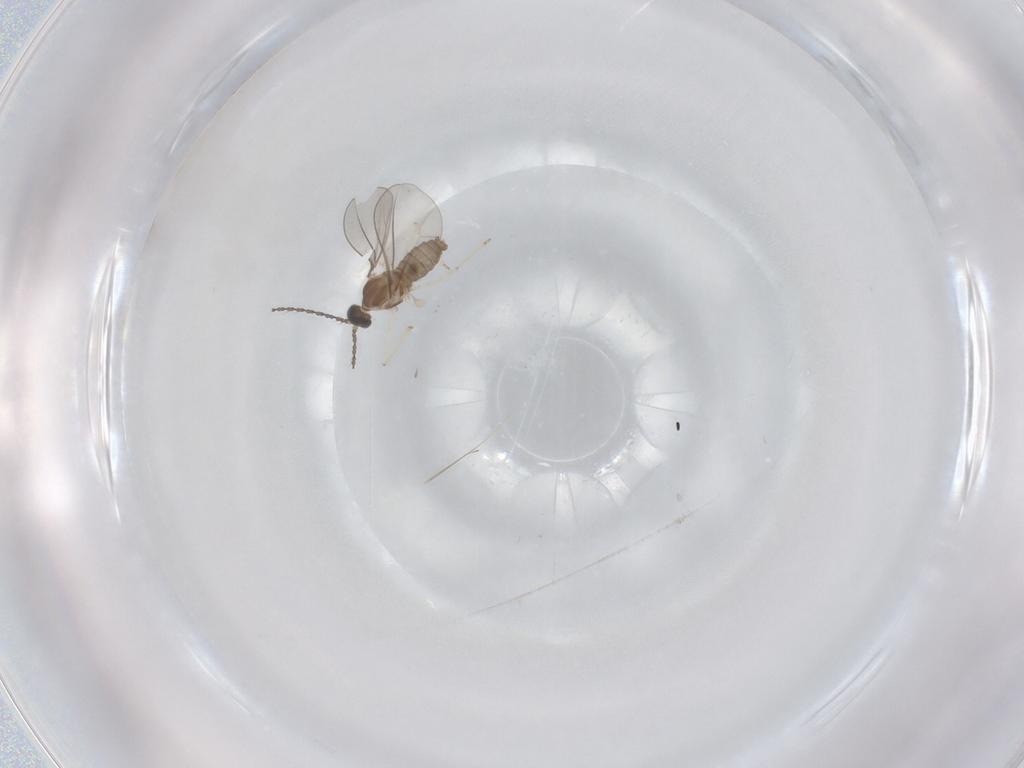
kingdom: Animalia
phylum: Arthropoda
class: Insecta
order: Diptera
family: Cecidomyiidae
